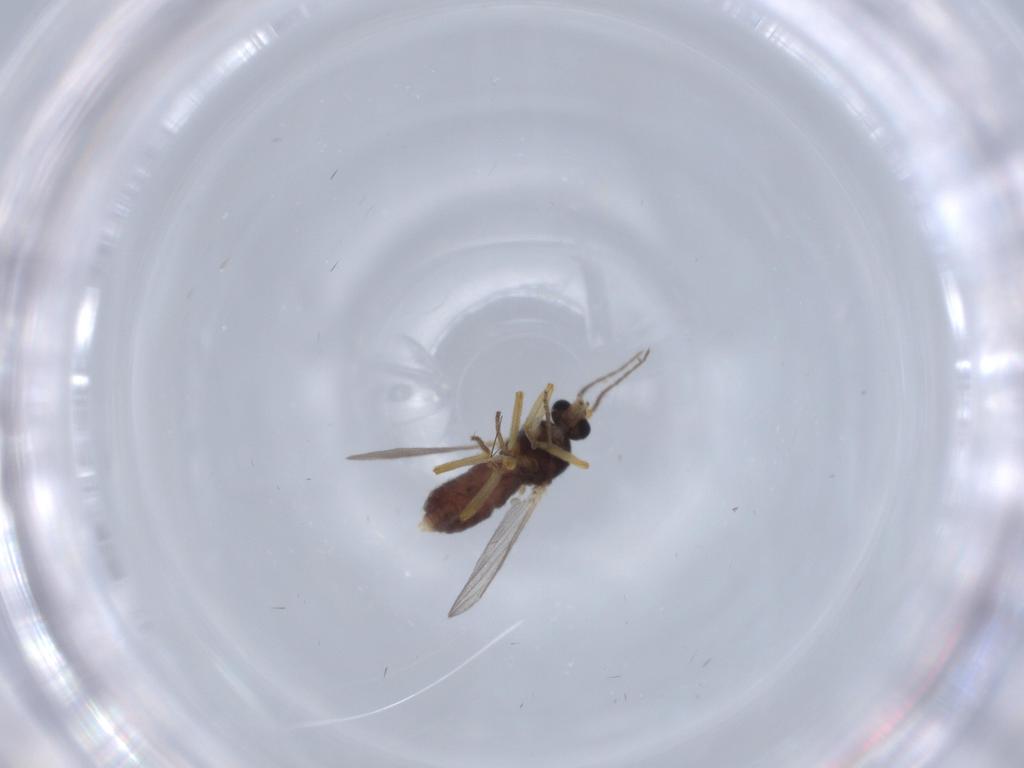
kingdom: Animalia
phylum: Arthropoda
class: Insecta
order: Diptera
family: Ceratopogonidae
